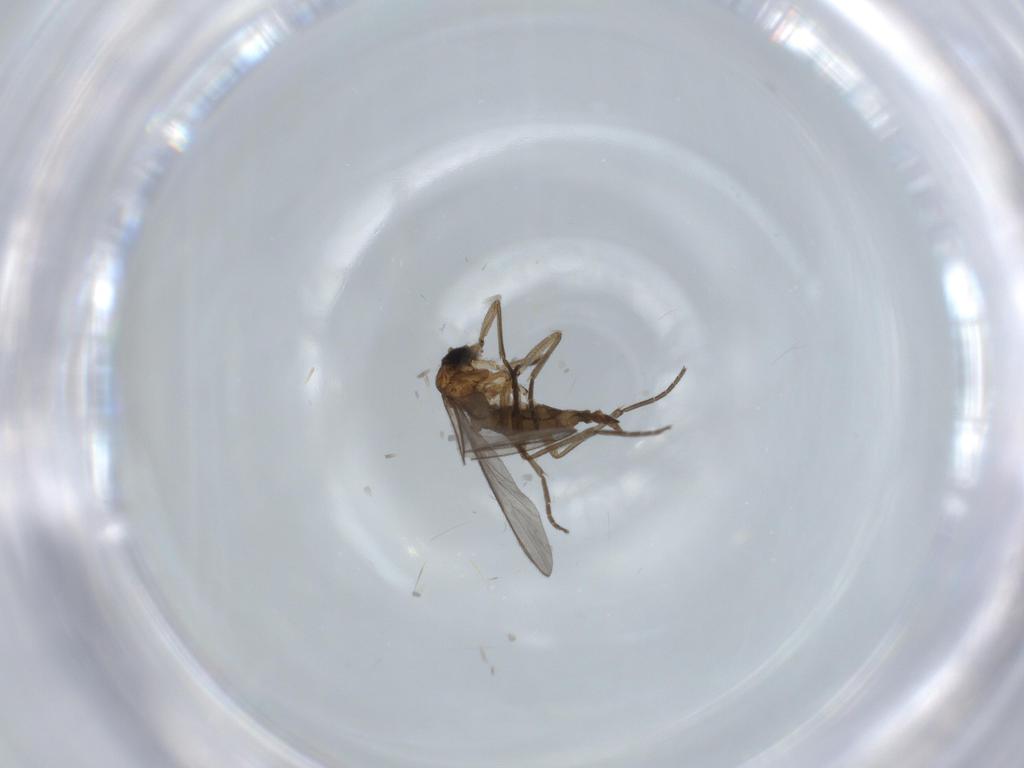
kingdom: Animalia
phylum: Arthropoda
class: Insecta
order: Diptera
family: Sciaridae
